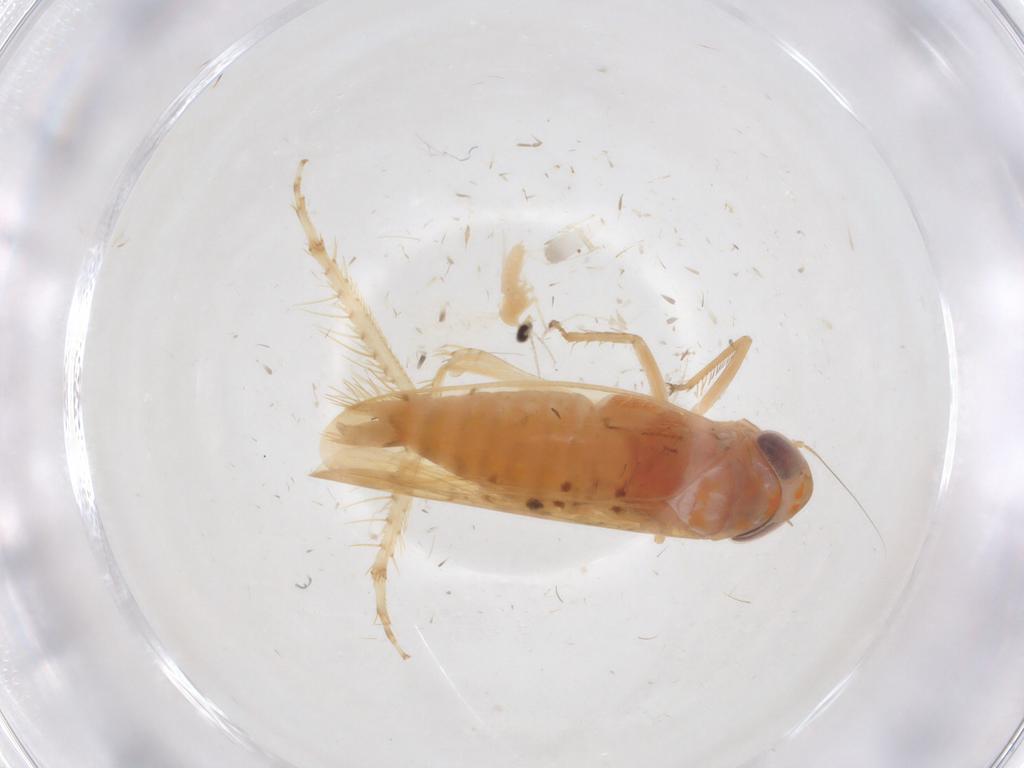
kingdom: Animalia
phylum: Arthropoda
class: Insecta
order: Hemiptera
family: Cicadellidae
